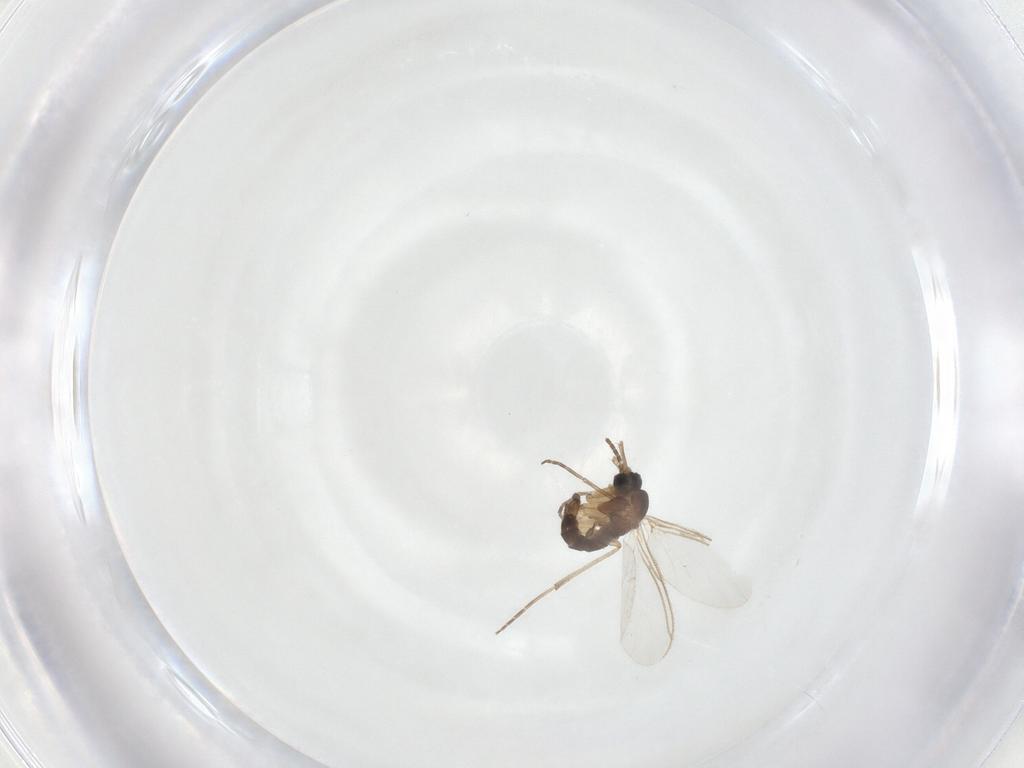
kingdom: Animalia
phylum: Arthropoda
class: Insecta
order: Diptera
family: Sciaridae
